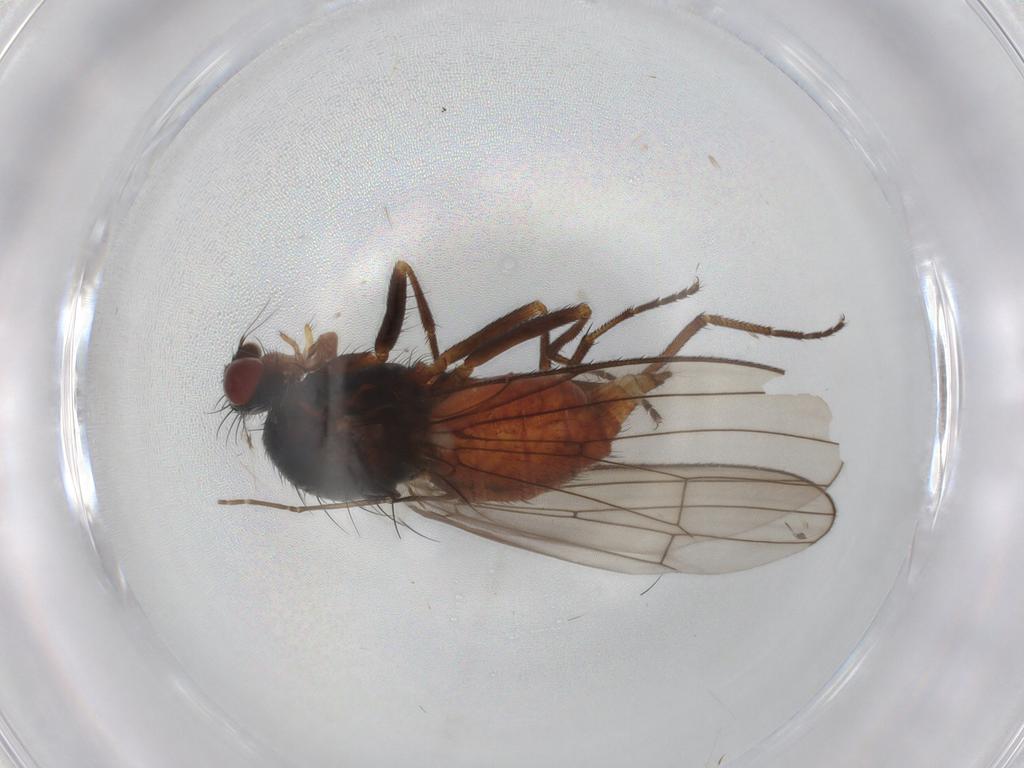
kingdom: Animalia
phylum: Arthropoda
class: Insecta
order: Diptera
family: Heleomyzidae
